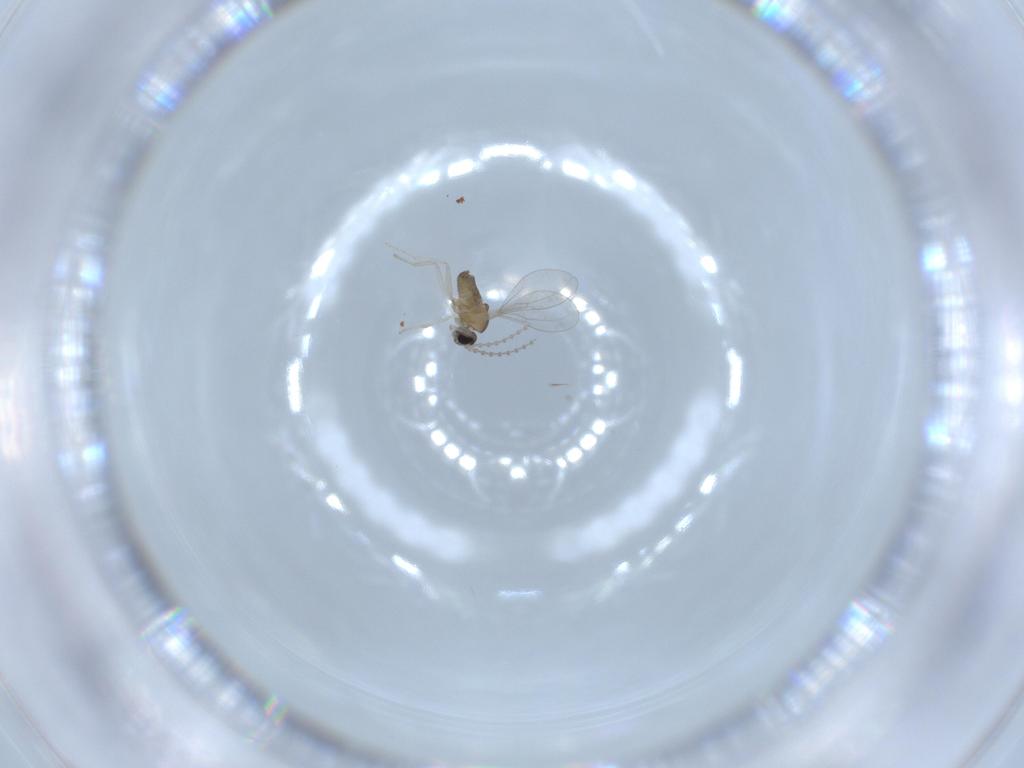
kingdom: Animalia
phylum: Arthropoda
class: Insecta
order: Diptera
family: Cecidomyiidae
